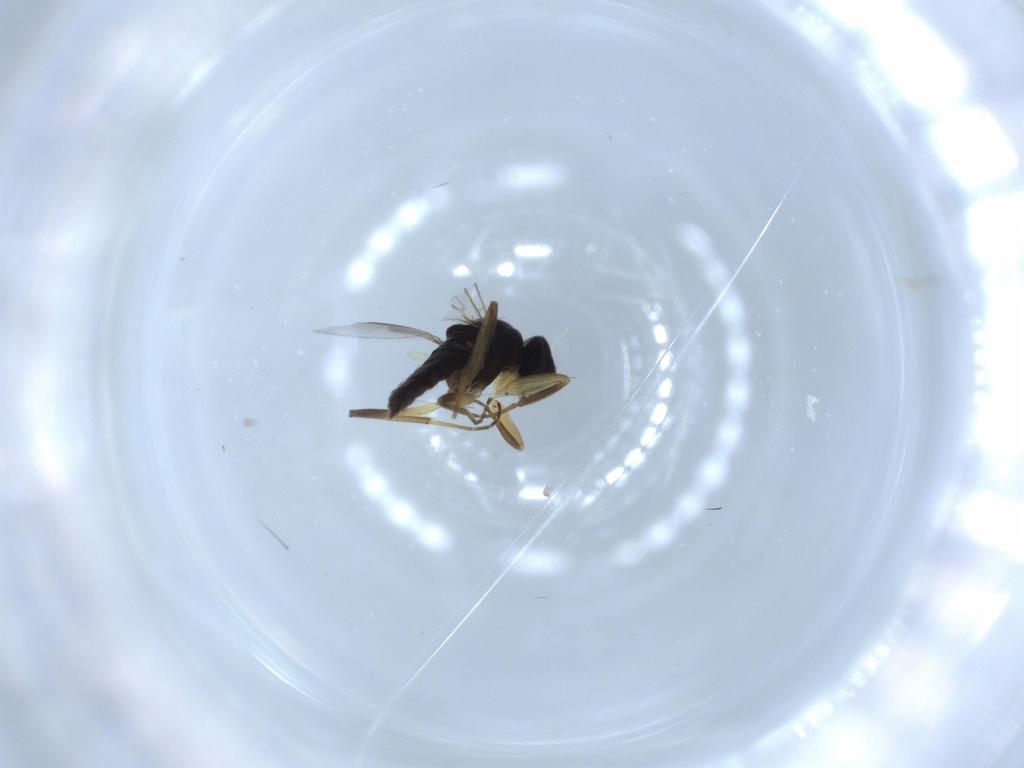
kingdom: Animalia
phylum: Arthropoda
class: Insecta
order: Diptera
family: Hybotidae
